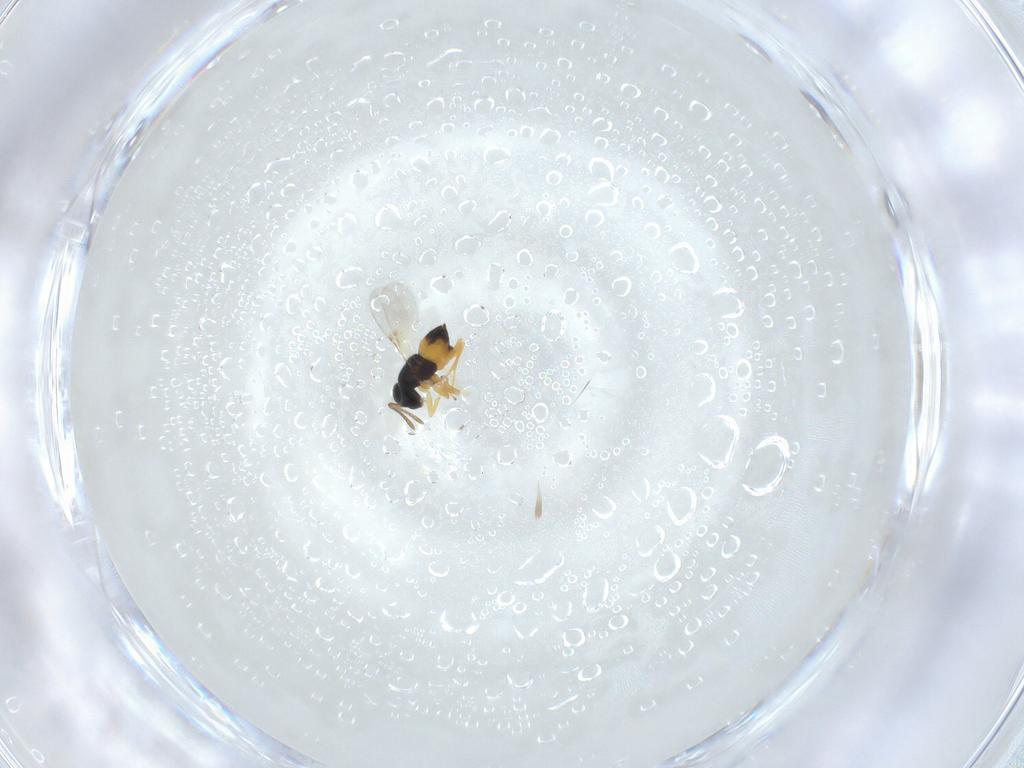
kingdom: Animalia
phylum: Arthropoda
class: Insecta
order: Hymenoptera
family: Encyrtidae
